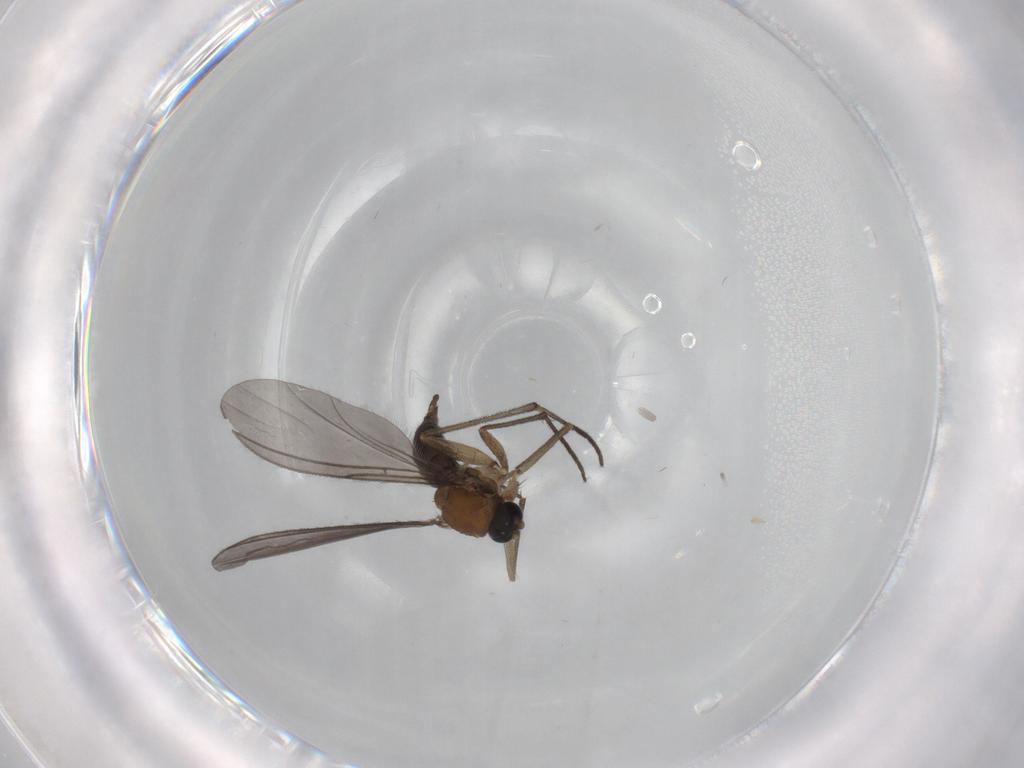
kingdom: Animalia
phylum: Arthropoda
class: Insecta
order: Diptera
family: Sciaridae
